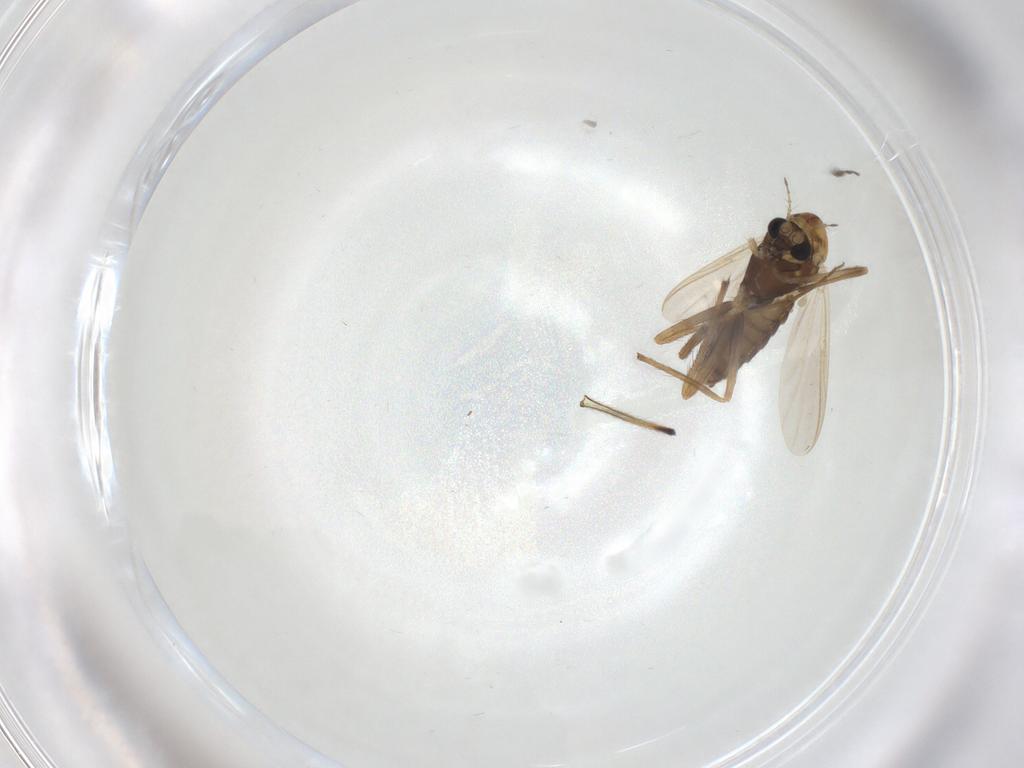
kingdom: Animalia
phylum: Arthropoda
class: Insecta
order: Diptera
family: Chironomidae
